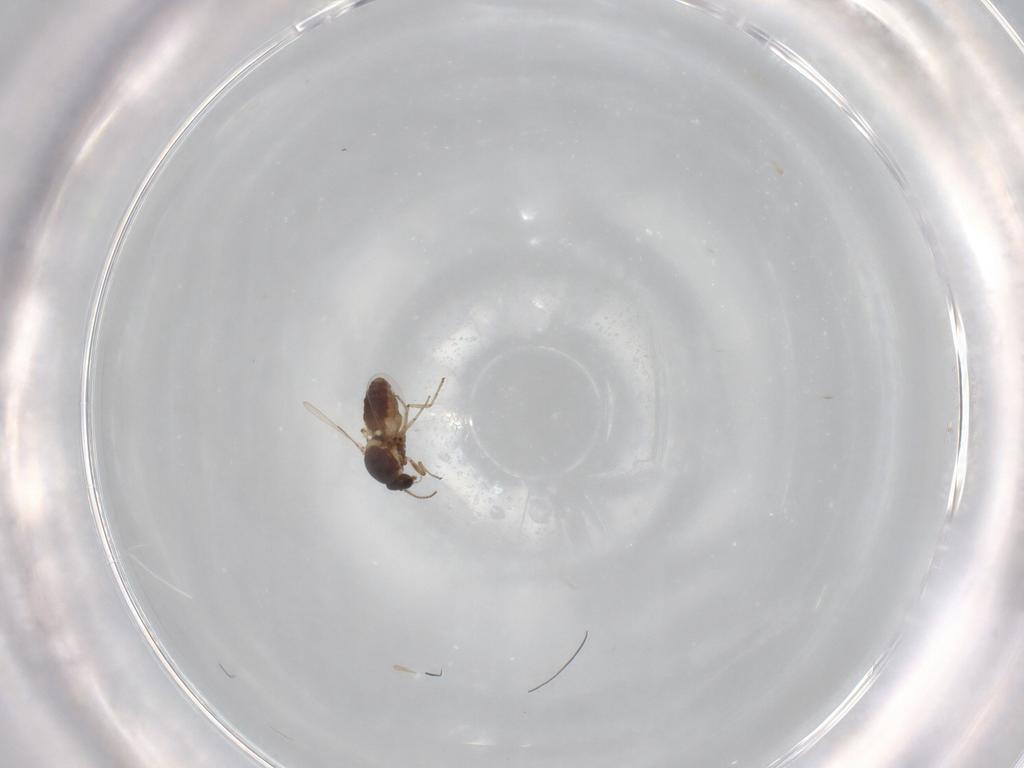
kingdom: Animalia
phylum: Arthropoda
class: Insecta
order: Diptera
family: Ceratopogonidae
